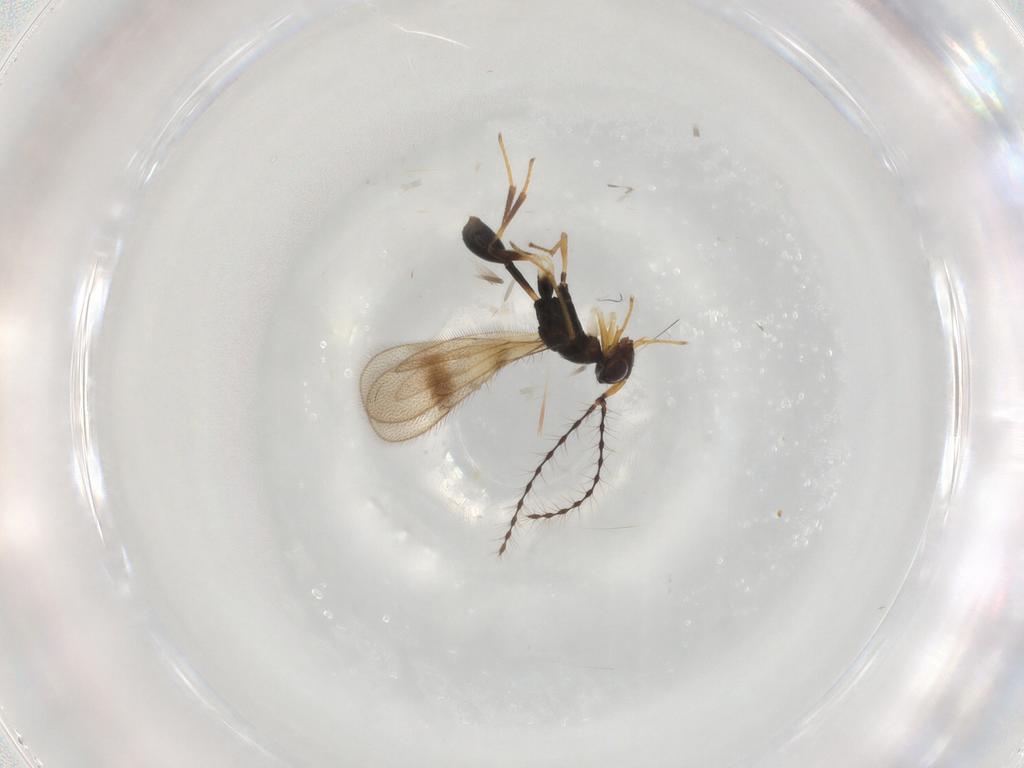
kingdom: Animalia
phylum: Arthropoda
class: Insecta
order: Hymenoptera
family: Diparidae
